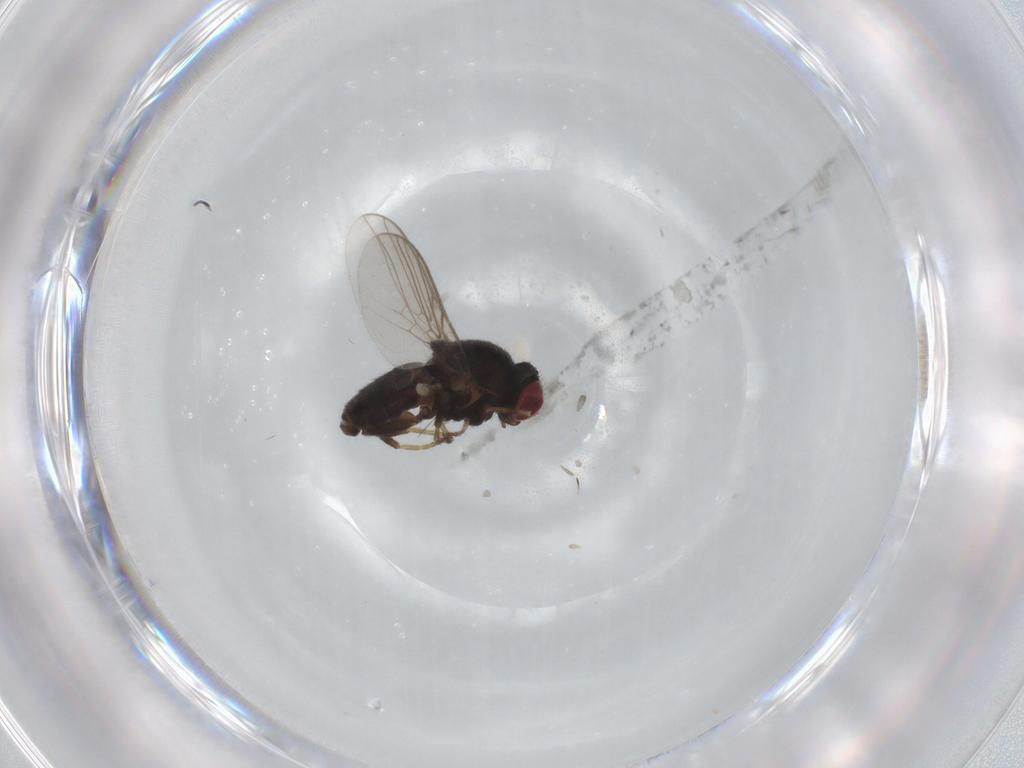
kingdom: Animalia
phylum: Arthropoda
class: Insecta
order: Diptera
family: Chloropidae
